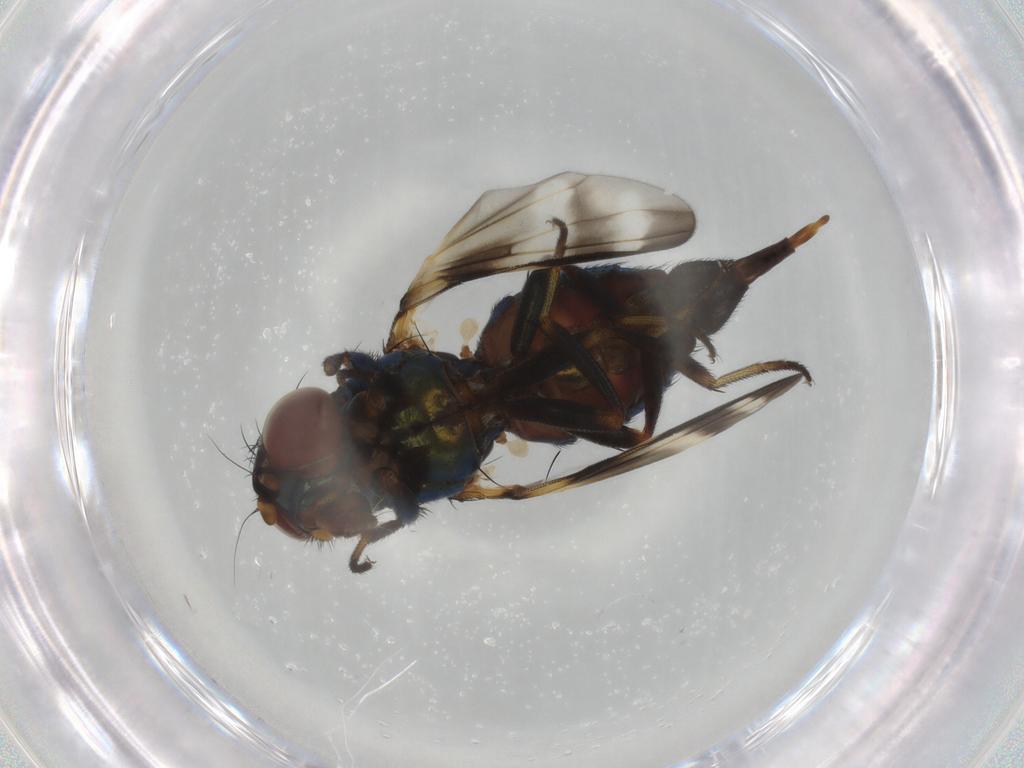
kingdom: Animalia
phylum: Arthropoda
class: Insecta
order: Diptera
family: Ulidiidae
